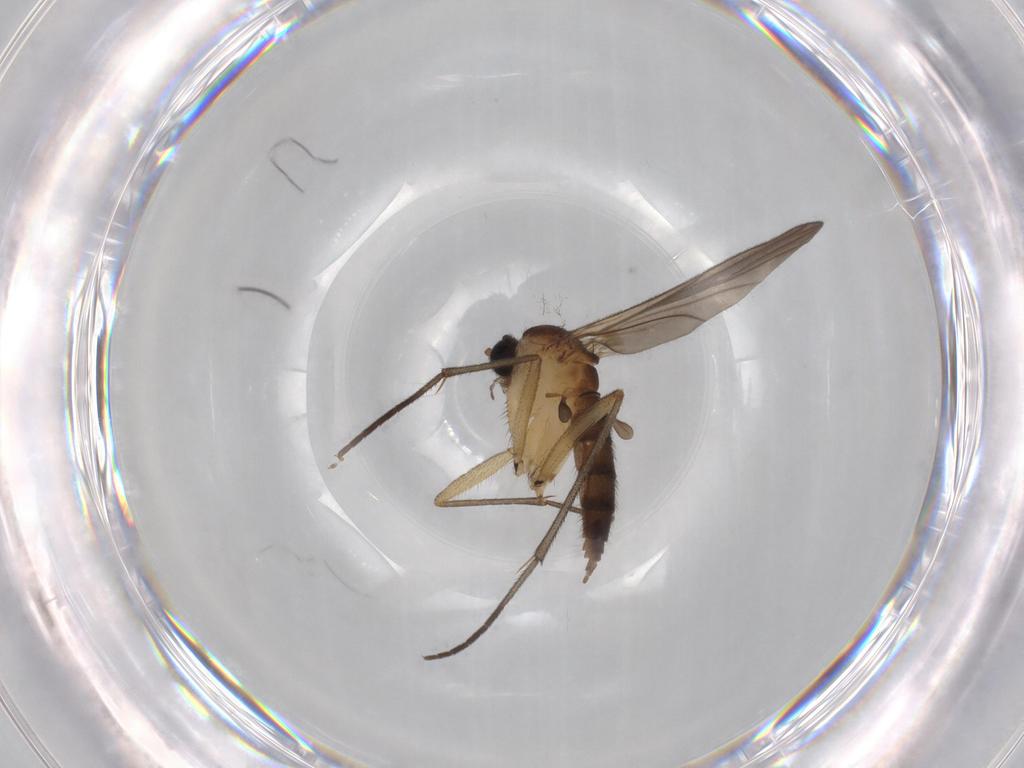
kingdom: Animalia
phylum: Arthropoda
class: Insecta
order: Diptera
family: Sciaridae
